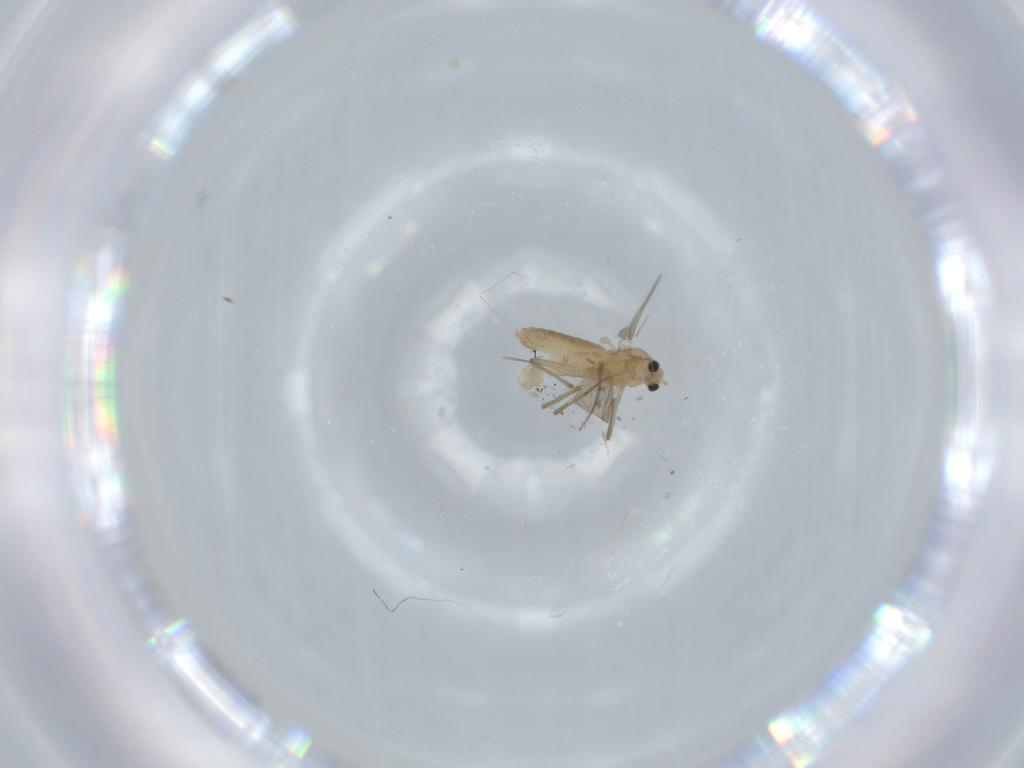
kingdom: Animalia
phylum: Arthropoda
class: Insecta
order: Diptera
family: Chironomidae
